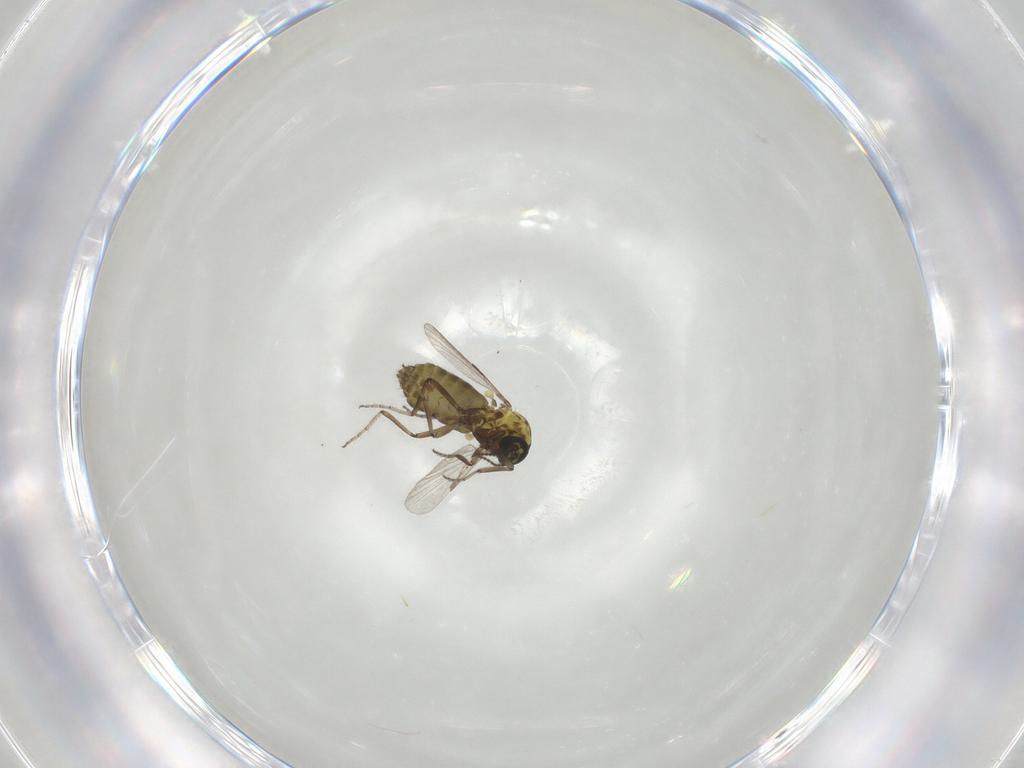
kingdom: Animalia
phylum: Arthropoda
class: Insecta
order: Diptera
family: Ceratopogonidae
